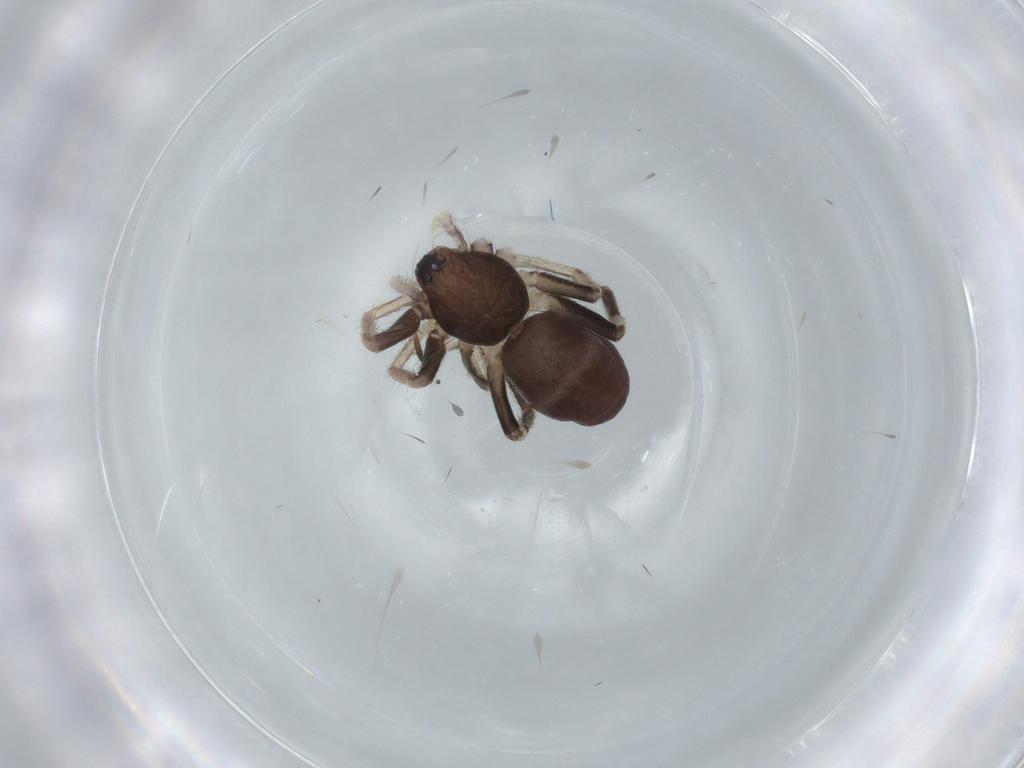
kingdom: Animalia
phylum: Arthropoda
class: Arachnida
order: Araneae
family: Corinnidae
